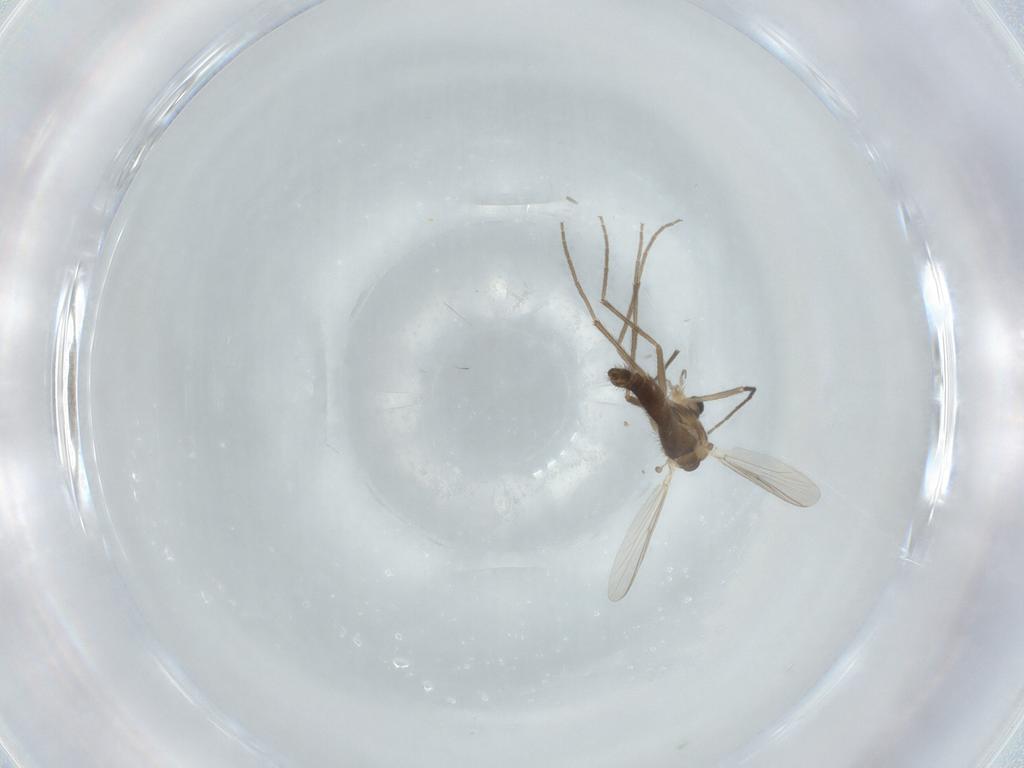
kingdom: Animalia
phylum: Arthropoda
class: Insecta
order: Diptera
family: Chironomidae
